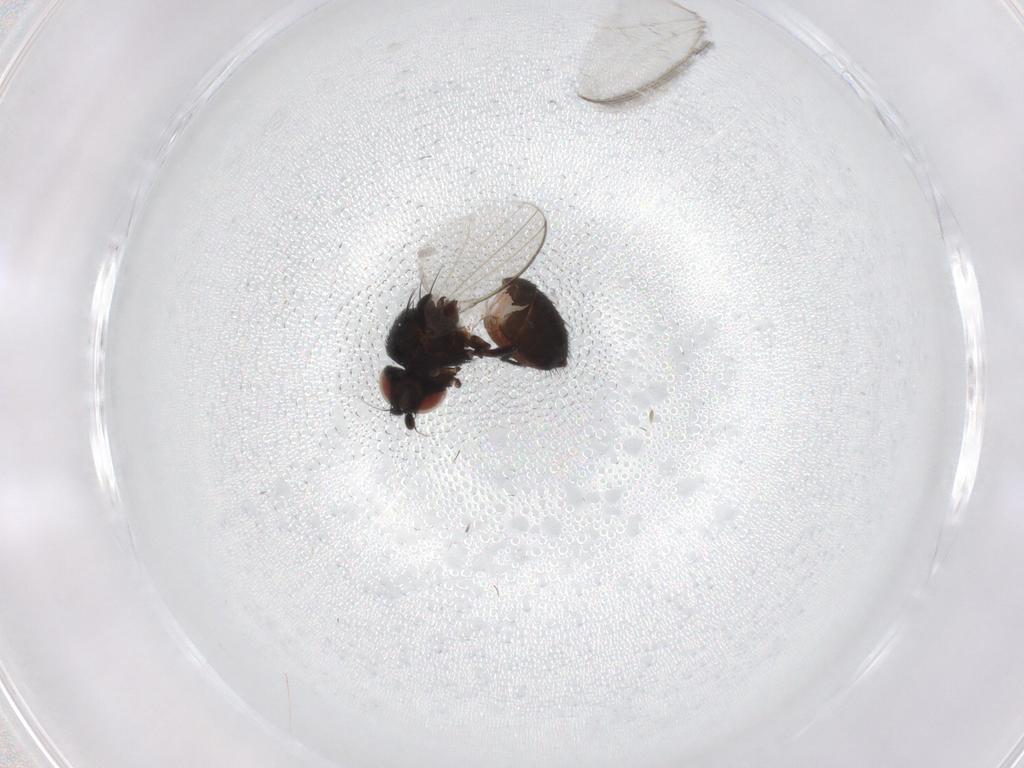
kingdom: Animalia
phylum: Arthropoda
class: Insecta
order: Diptera
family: Milichiidae
